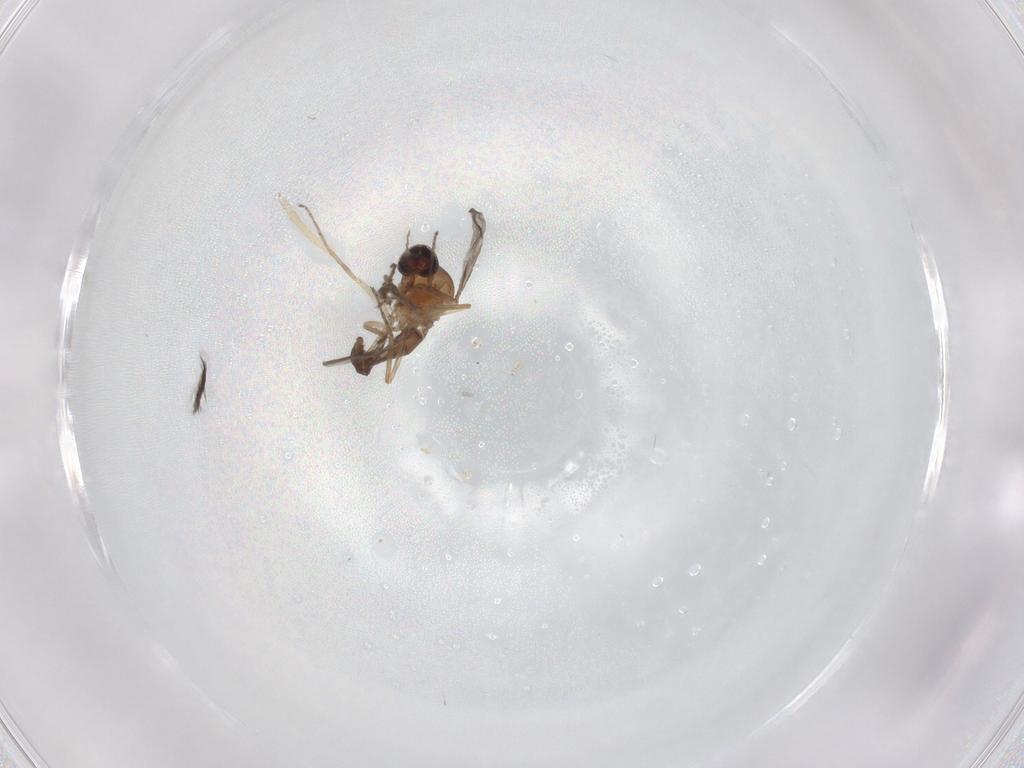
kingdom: Animalia
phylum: Arthropoda
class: Insecta
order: Diptera
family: Ceratopogonidae
